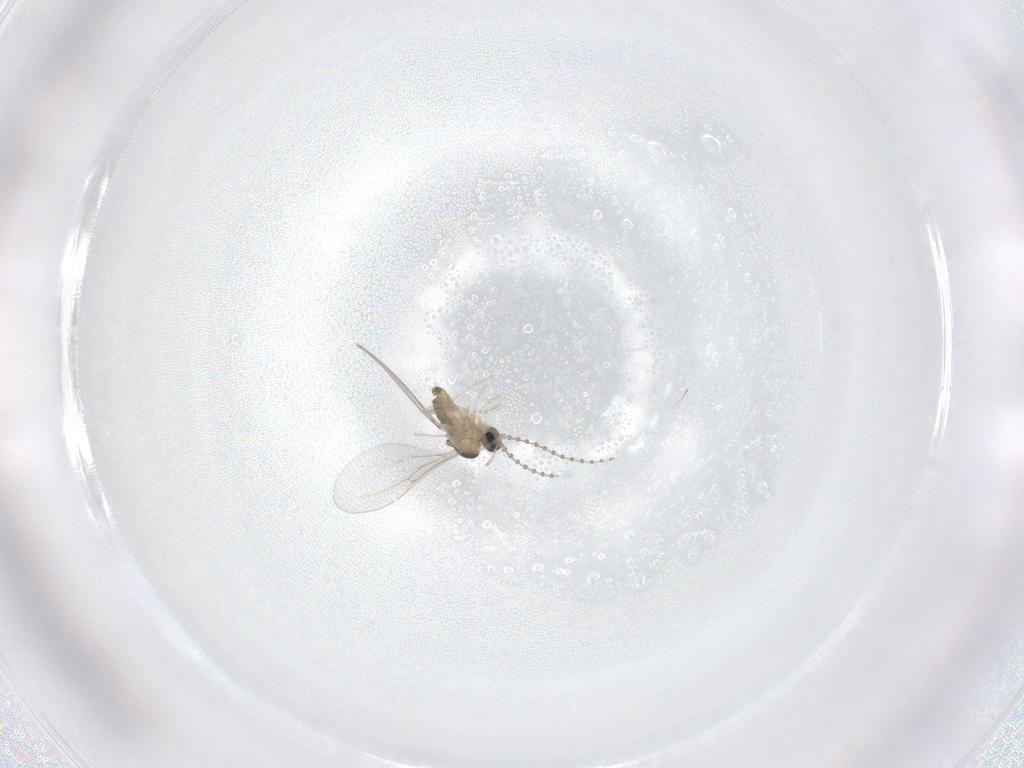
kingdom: Animalia
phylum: Arthropoda
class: Insecta
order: Diptera
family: Cecidomyiidae
